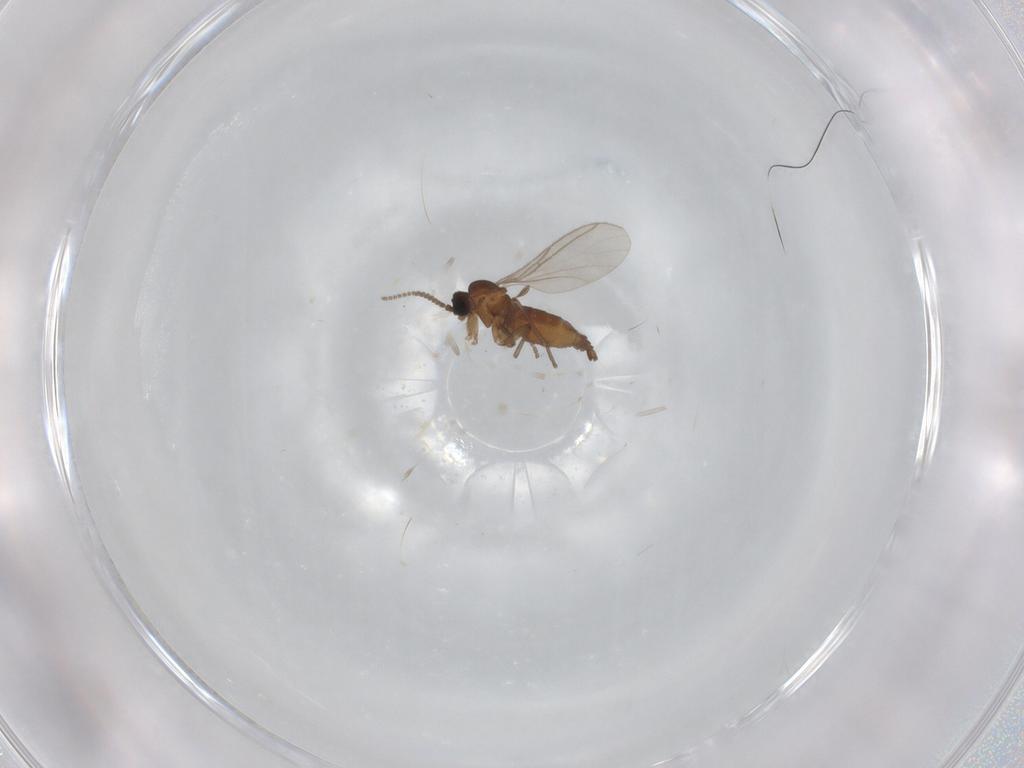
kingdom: Animalia
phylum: Arthropoda
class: Insecta
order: Diptera
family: Sciaridae
